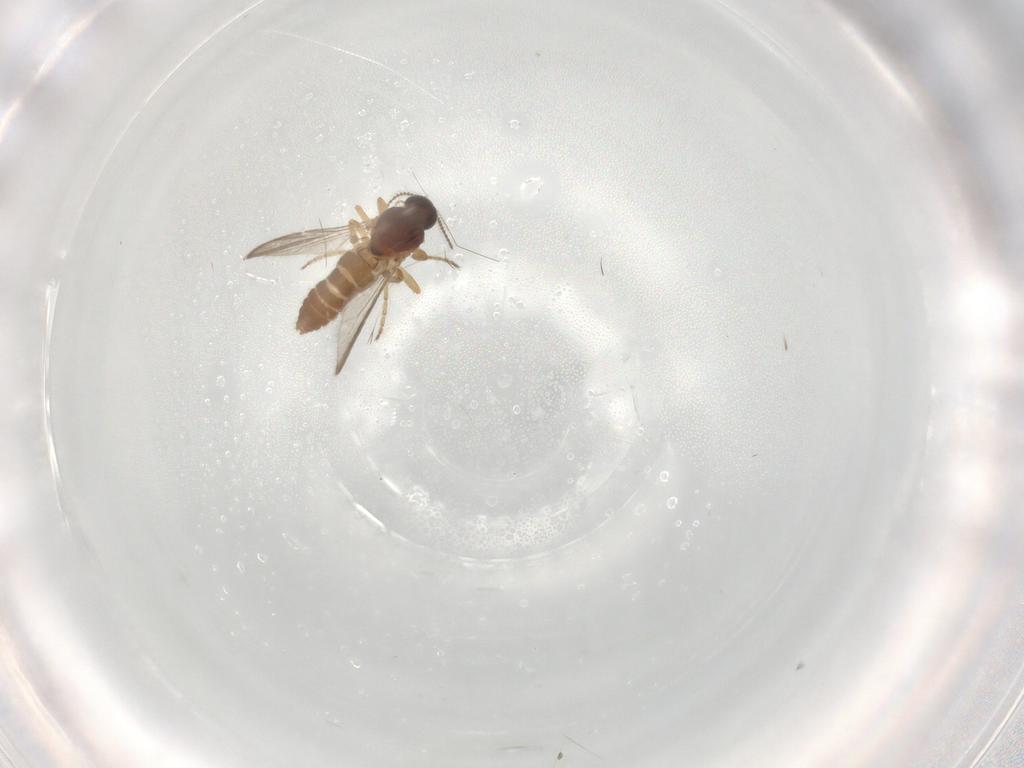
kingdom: Animalia
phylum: Arthropoda
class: Insecta
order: Diptera
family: Ceratopogonidae
